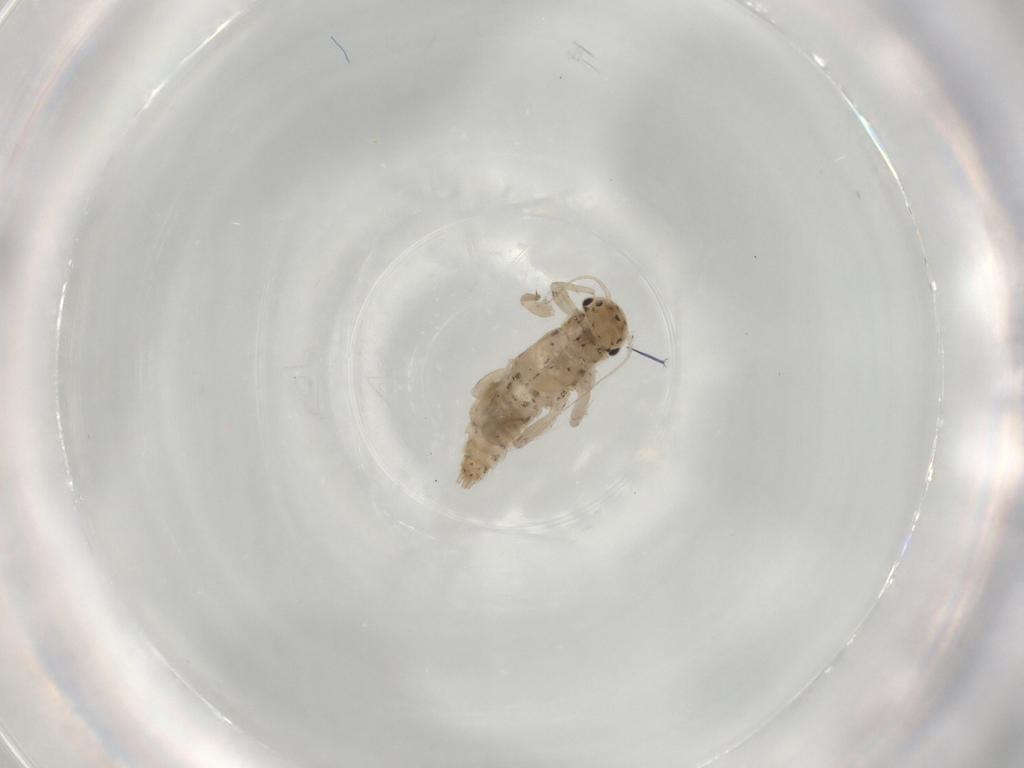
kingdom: Animalia
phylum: Arthropoda
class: Insecta
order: Ephemeroptera
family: Caenidae
